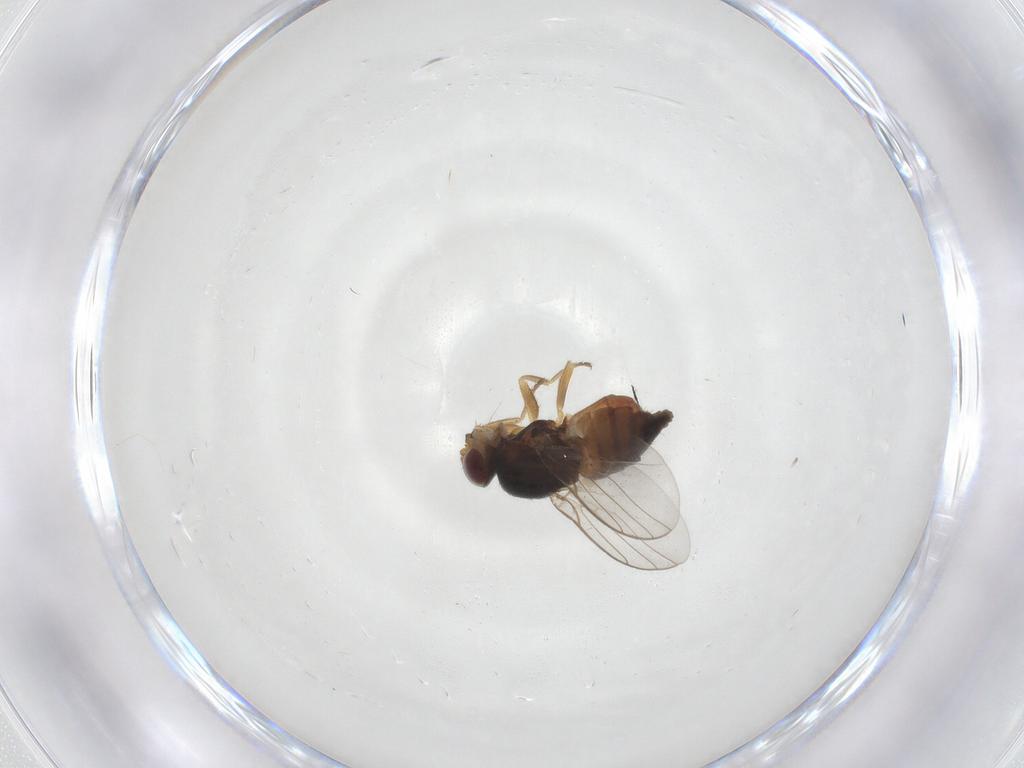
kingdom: Animalia
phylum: Arthropoda
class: Insecta
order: Diptera
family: Chloropidae
